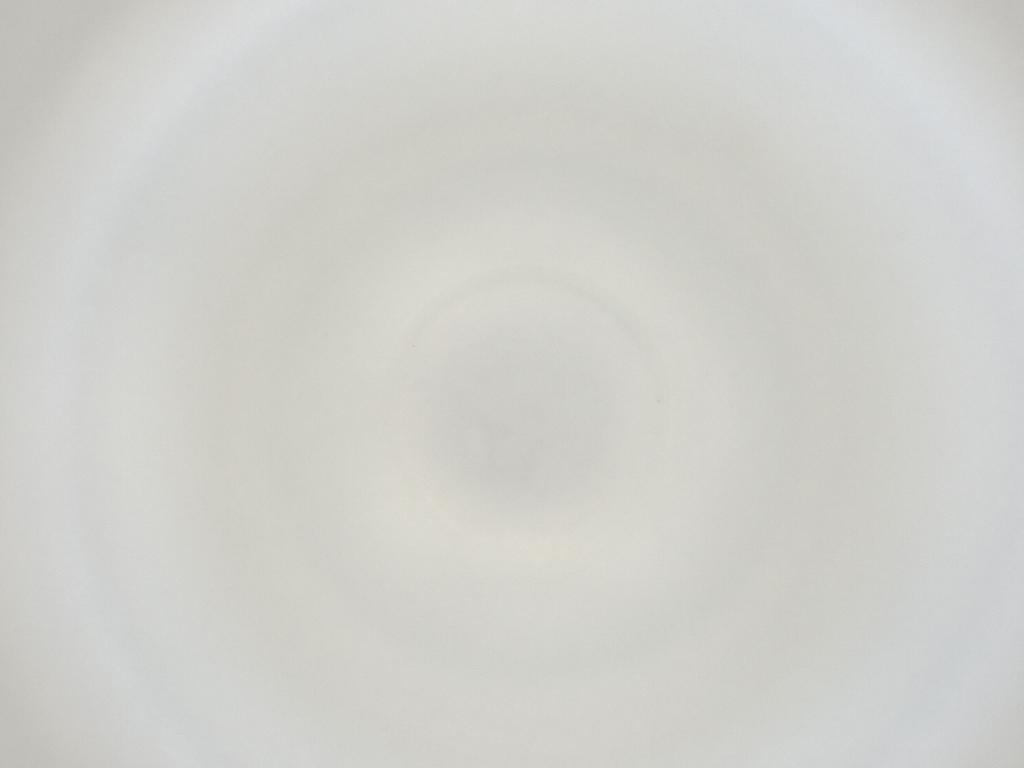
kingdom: Animalia
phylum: Arthropoda
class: Insecta
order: Diptera
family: Cecidomyiidae
